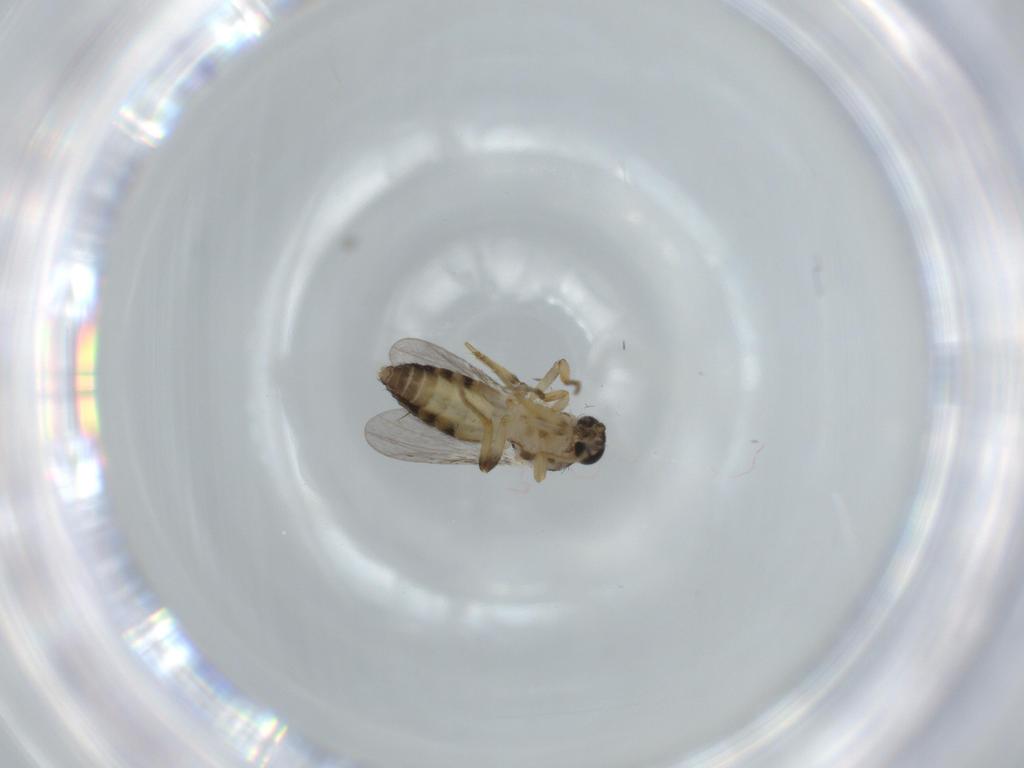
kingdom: Animalia
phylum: Arthropoda
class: Insecta
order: Diptera
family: Ceratopogonidae
